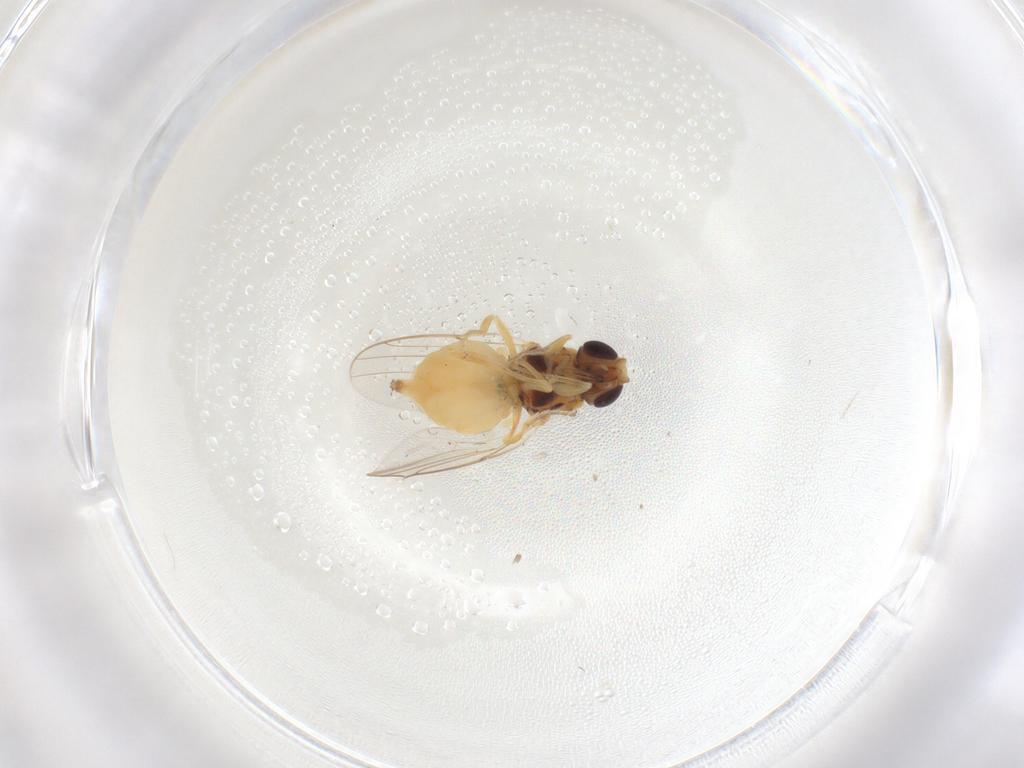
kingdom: Animalia
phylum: Arthropoda
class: Insecta
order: Diptera
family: Chloropidae
